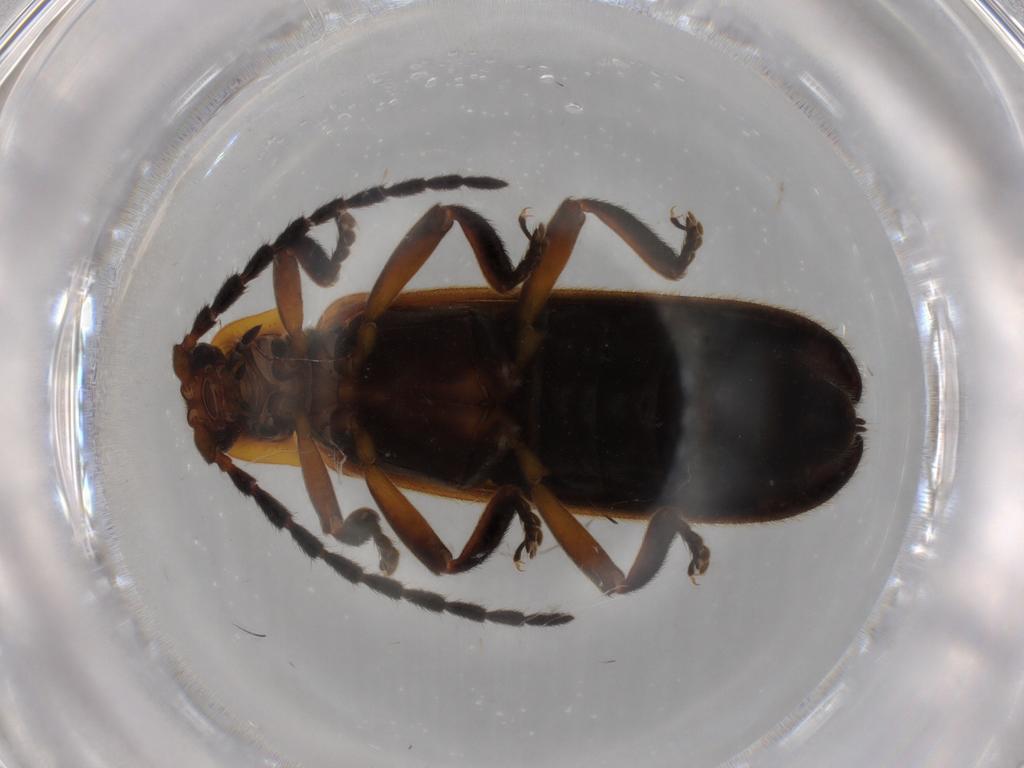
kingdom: Animalia
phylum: Arthropoda
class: Insecta
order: Coleoptera
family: Lycidae
